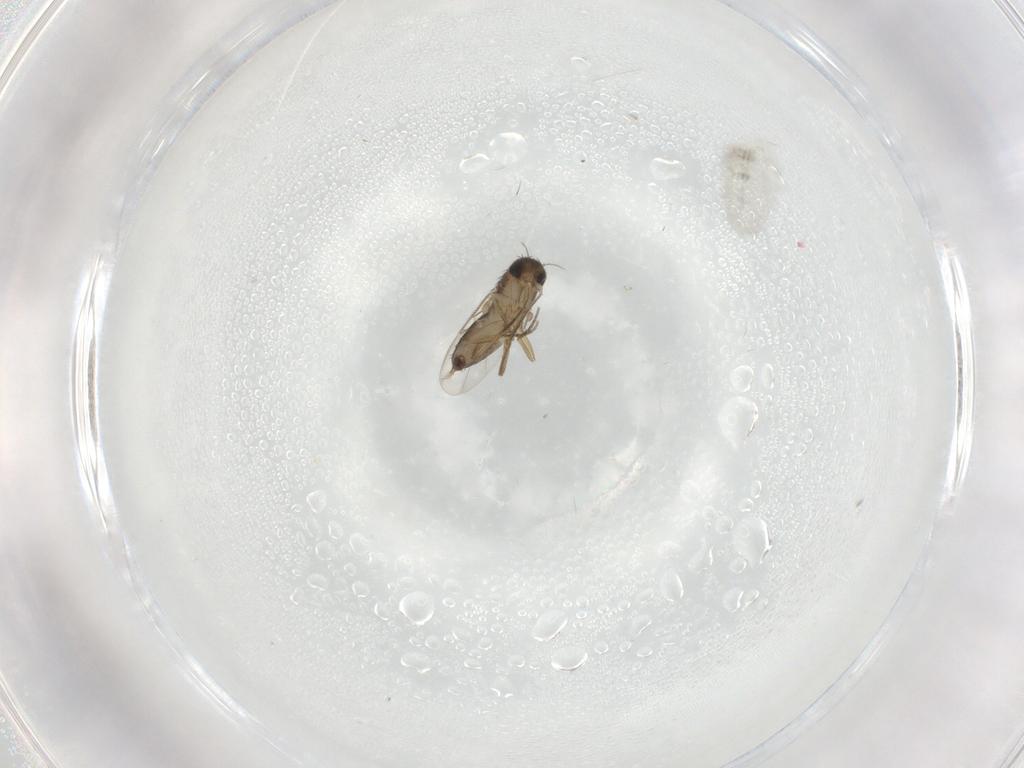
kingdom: Animalia
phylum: Arthropoda
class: Insecta
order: Diptera
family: Phoridae
